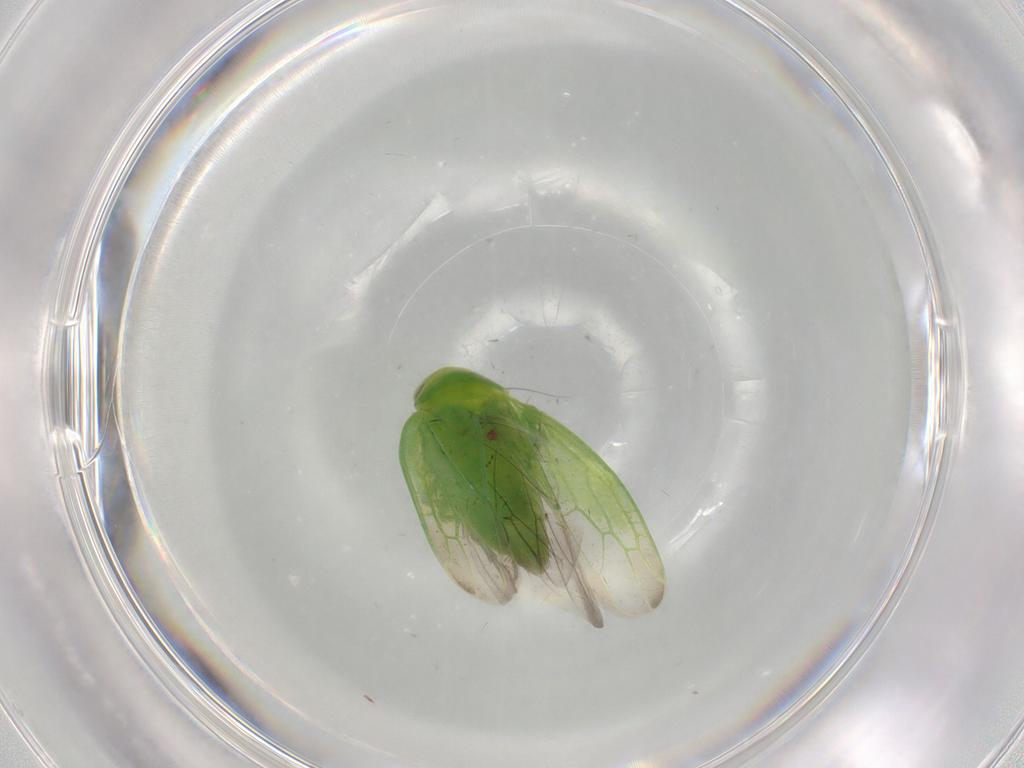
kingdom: Animalia
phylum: Arthropoda
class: Insecta
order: Hemiptera
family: Cicadellidae
